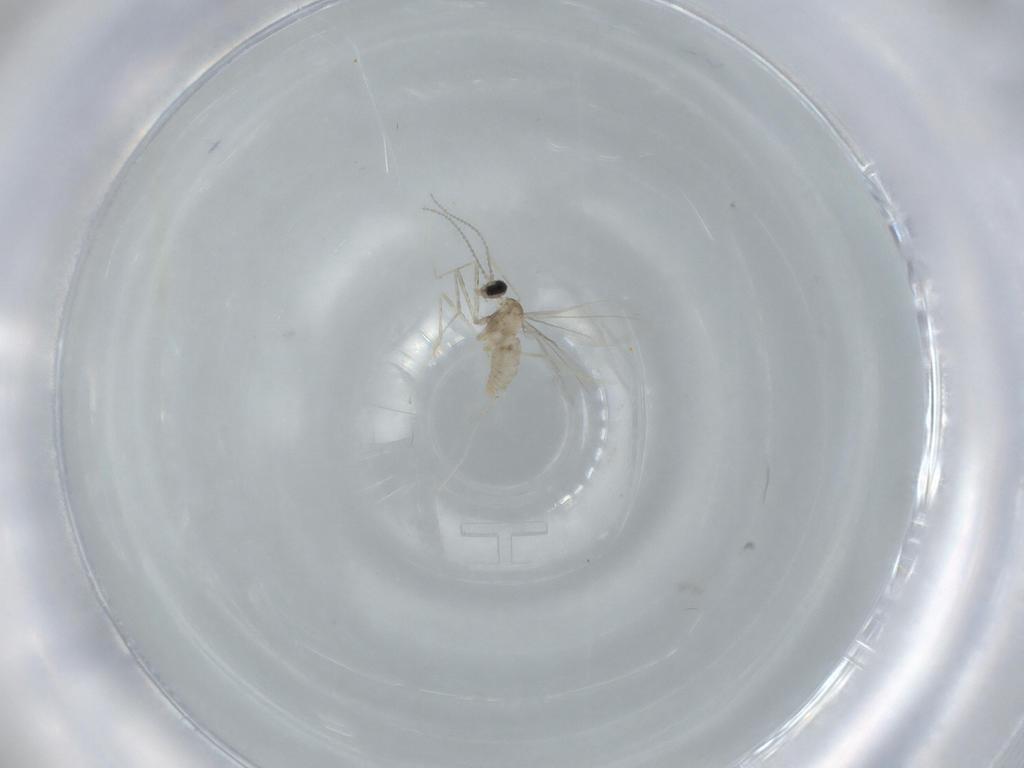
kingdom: Animalia
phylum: Arthropoda
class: Insecta
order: Diptera
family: Cecidomyiidae
